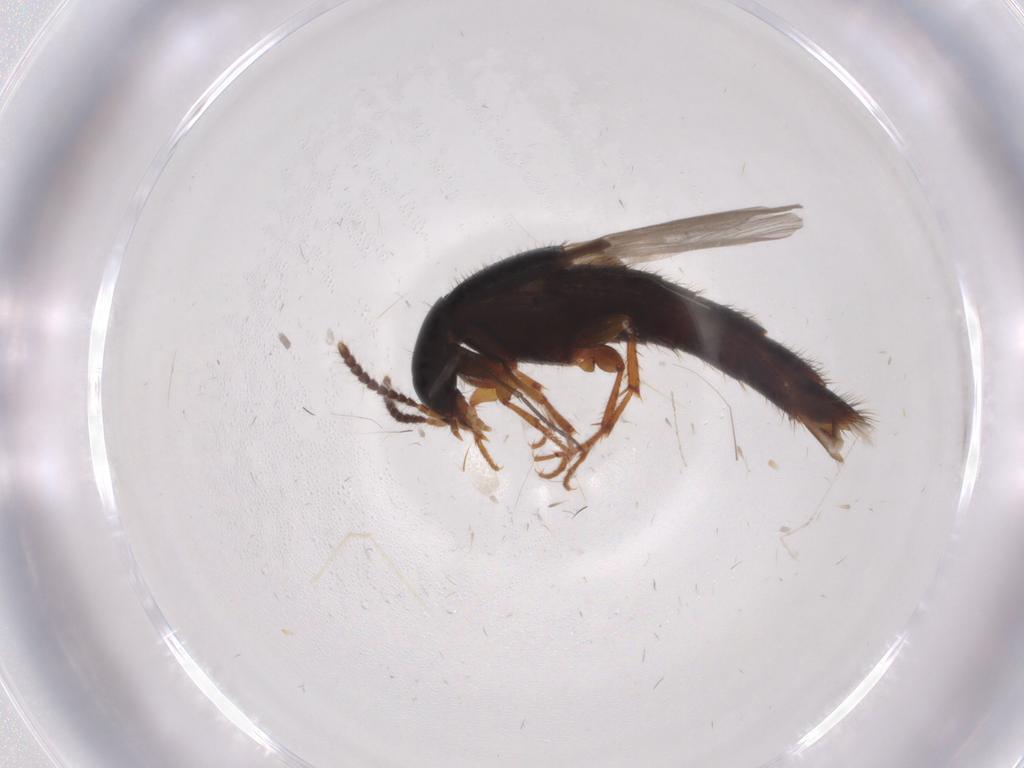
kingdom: Animalia
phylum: Arthropoda
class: Insecta
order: Coleoptera
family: Staphylinidae
